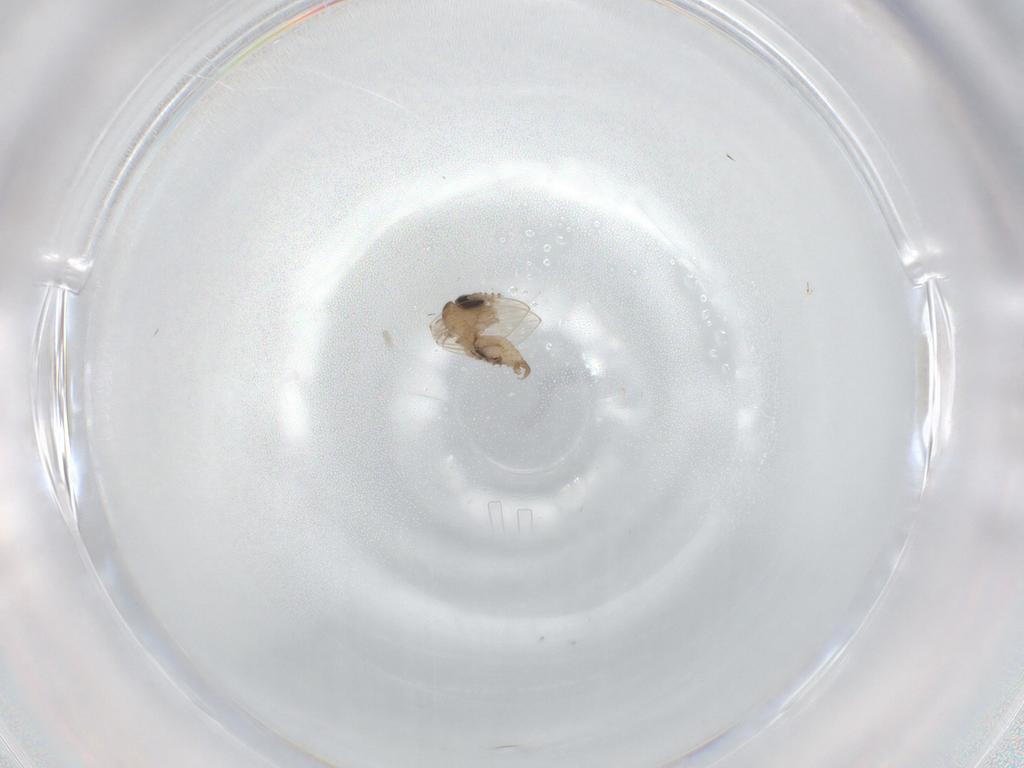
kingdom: Animalia
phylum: Arthropoda
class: Insecta
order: Diptera
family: Psychodidae
